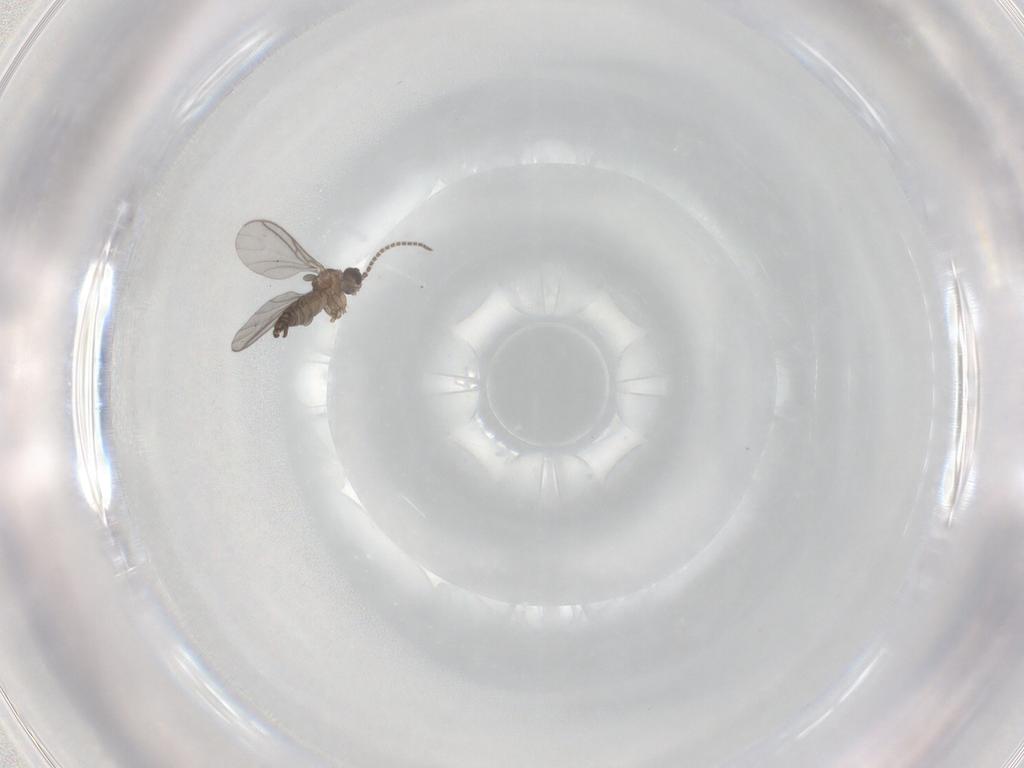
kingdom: Animalia
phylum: Arthropoda
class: Insecta
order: Diptera
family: Sciaridae
